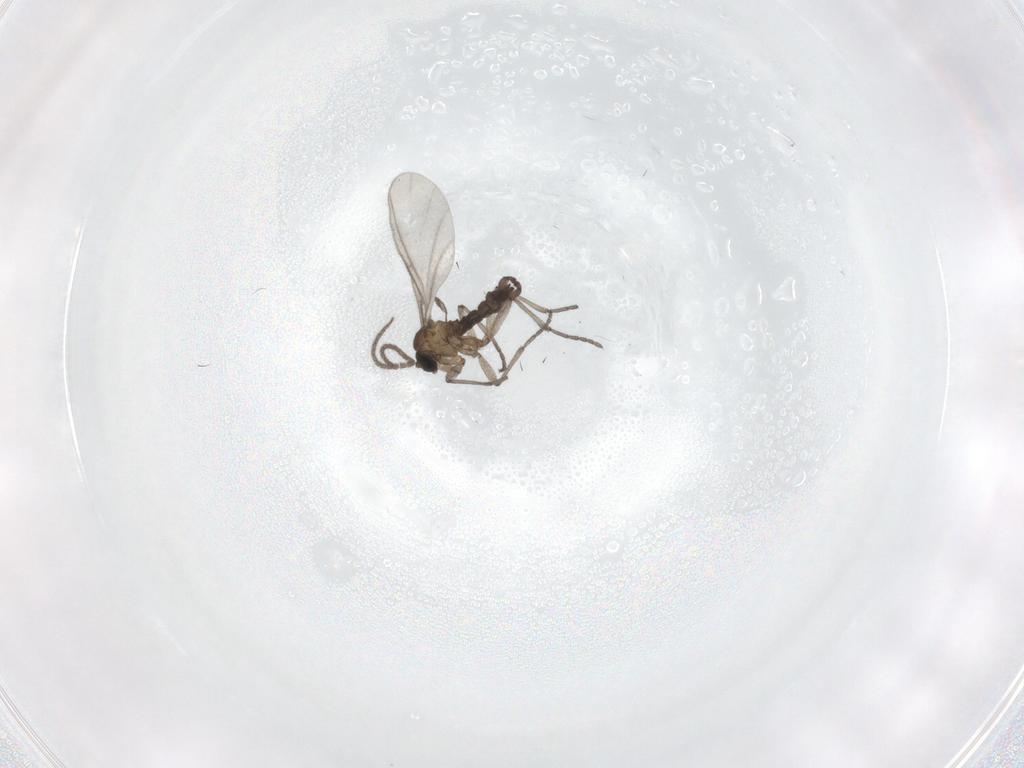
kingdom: Animalia
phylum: Arthropoda
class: Insecta
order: Diptera
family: Sciaridae
